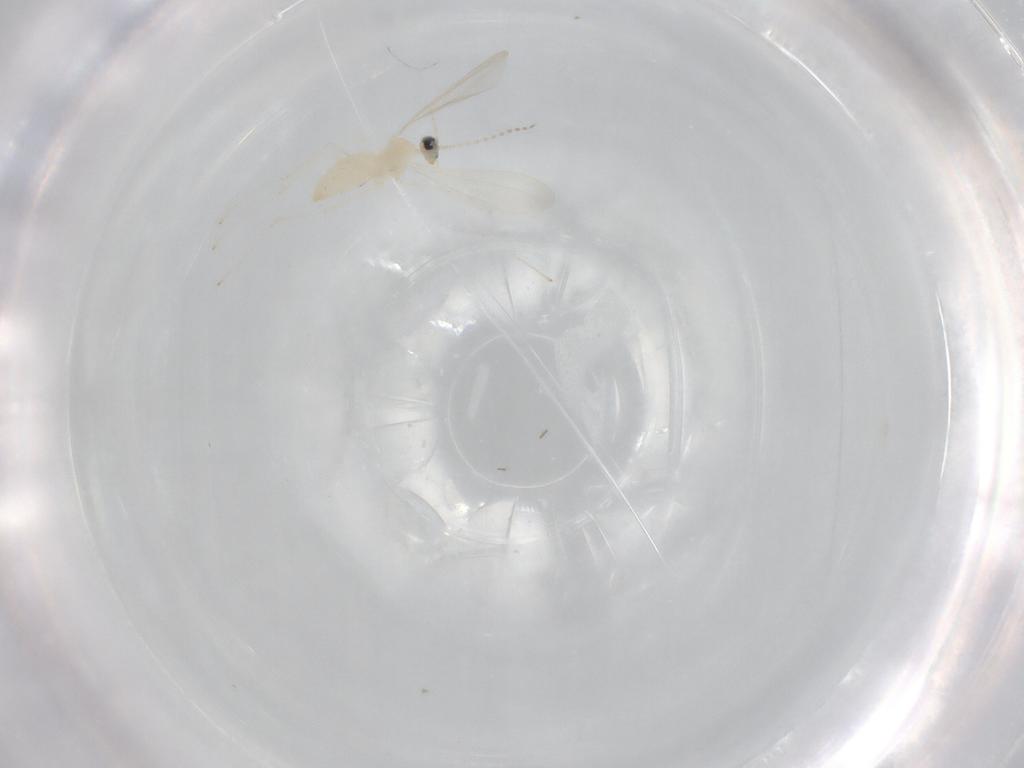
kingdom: Animalia
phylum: Arthropoda
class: Insecta
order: Diptera
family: Cecidomyiidae
